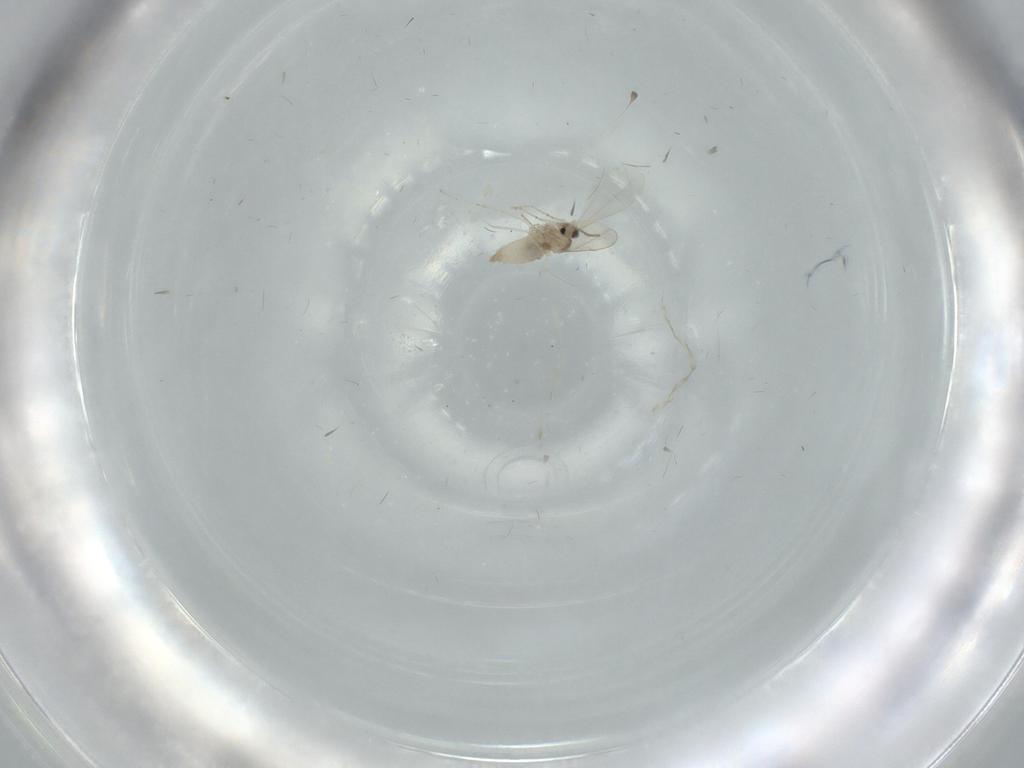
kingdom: Animalia
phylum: Arthropoda
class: Insecta
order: Diptera
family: Cecidomyiidae
